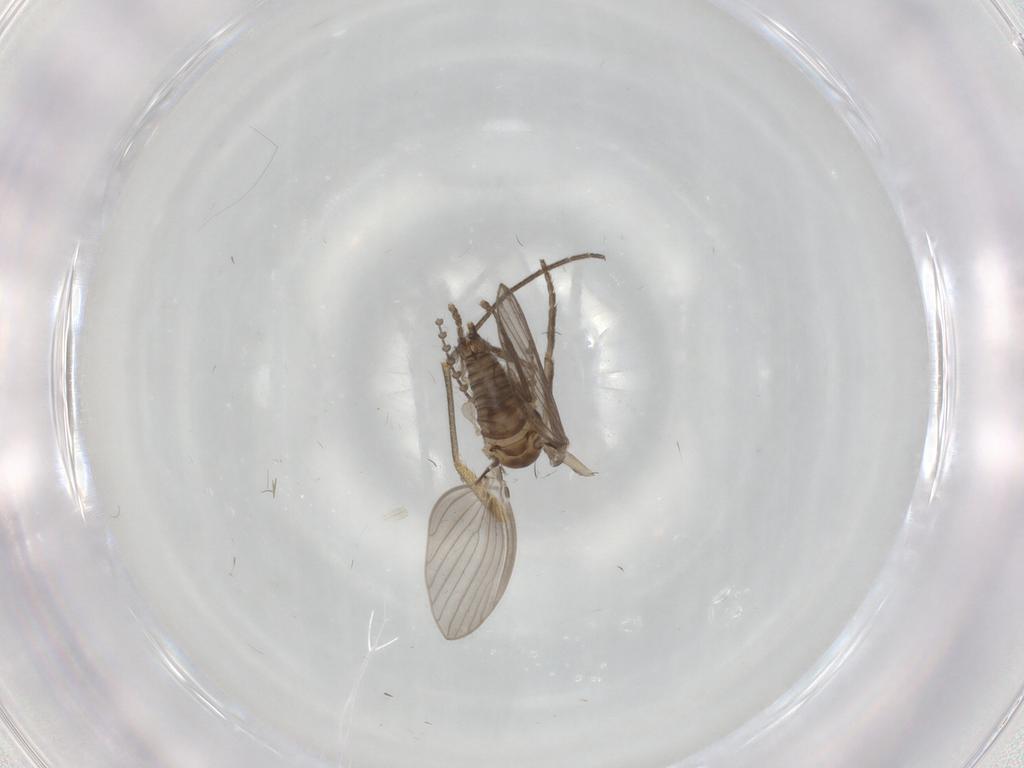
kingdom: Animalia
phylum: Arthropoda
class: Insecta
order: Diptera
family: Psychodidae
